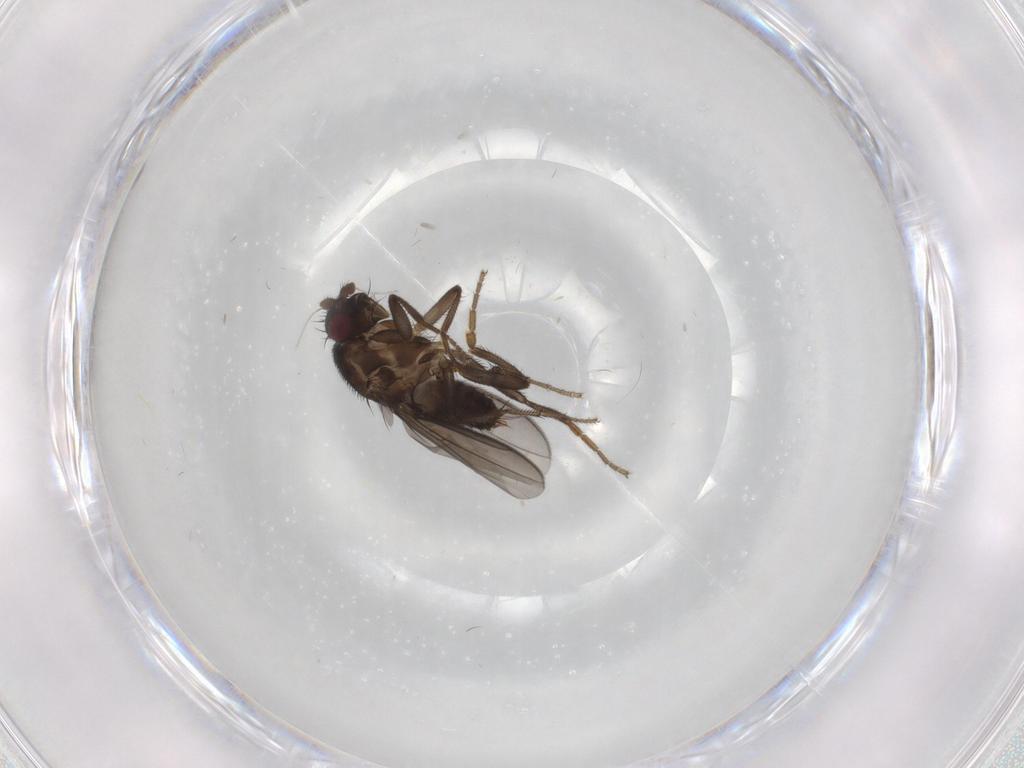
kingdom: Animalia
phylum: Arthropoda
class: Insecta
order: Diptera
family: Sphaeroceridae
